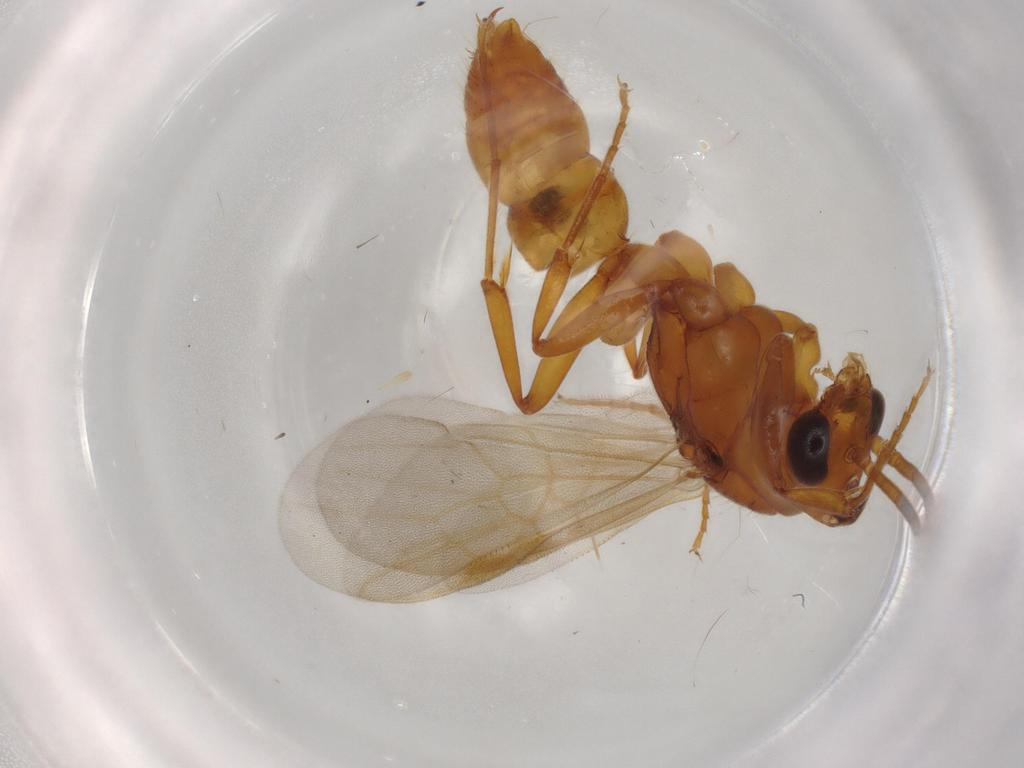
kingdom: Animalia
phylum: Arthropoda
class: Insecta
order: Hymenoptera
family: Formicidae
